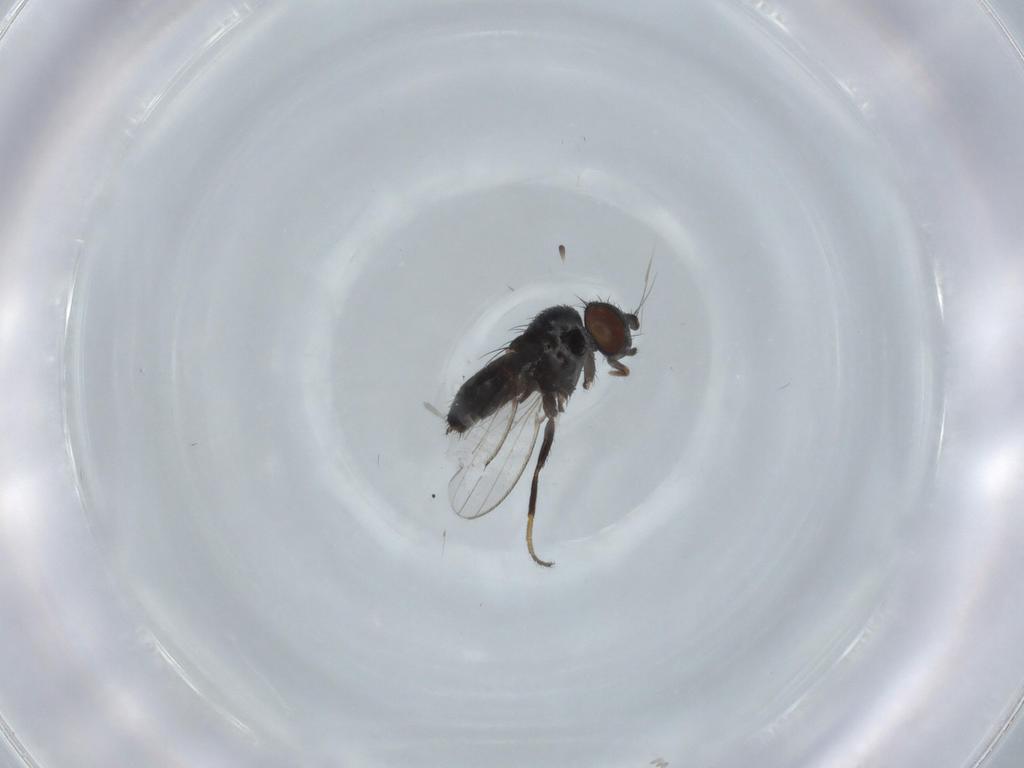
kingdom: Animalia
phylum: Arthropoda
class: Insecta
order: Diptera
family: Milichiidae
